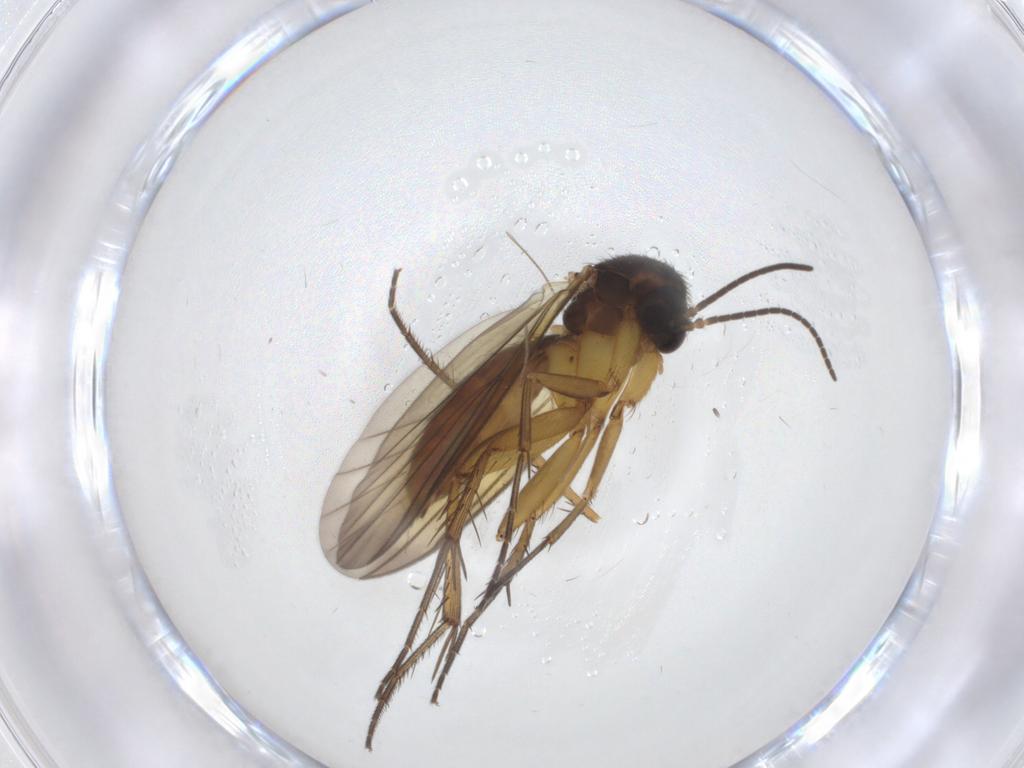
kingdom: Animalia
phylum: Arthropoda
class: Insecta
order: Diptera
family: Mycetophilidae
